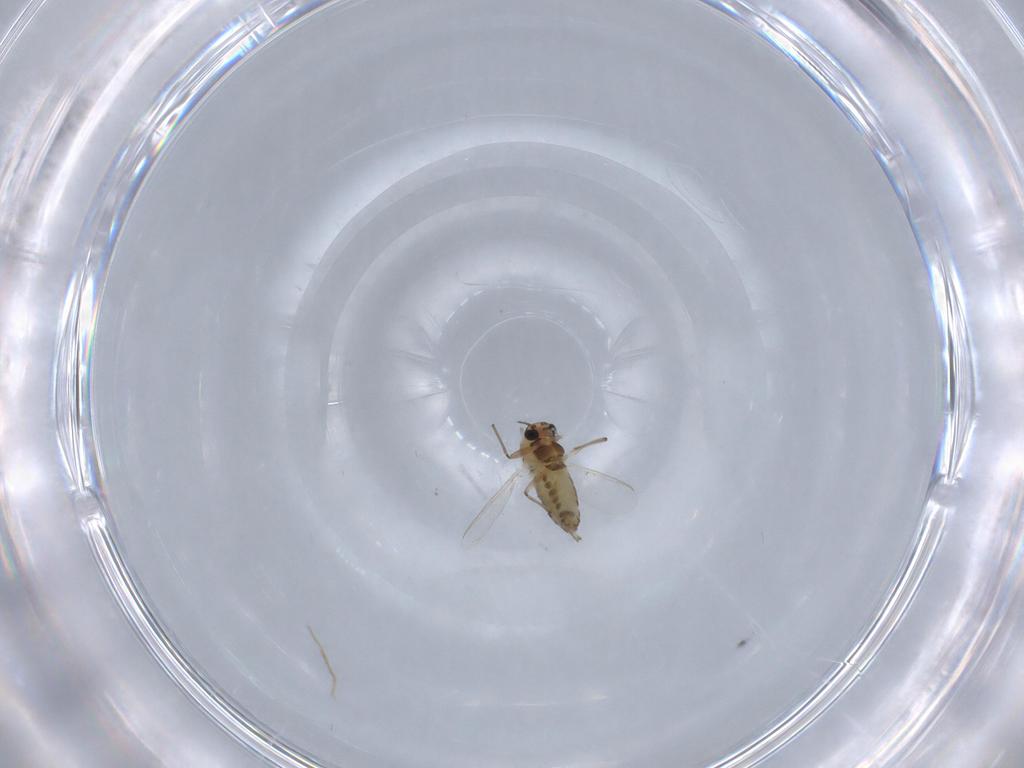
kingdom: Animalia
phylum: Arthropoda
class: Insecta
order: Diptera
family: Chironomidae
